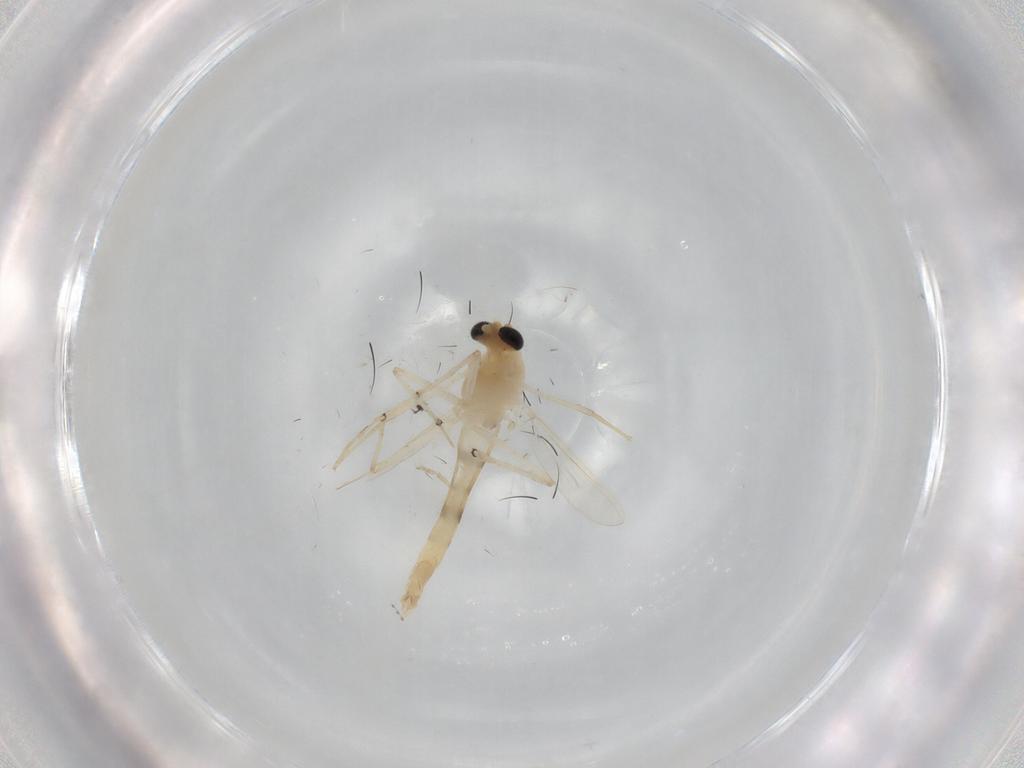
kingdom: Animalia
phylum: Arthropoda
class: Insecta
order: Diptera
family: Chironomidae
